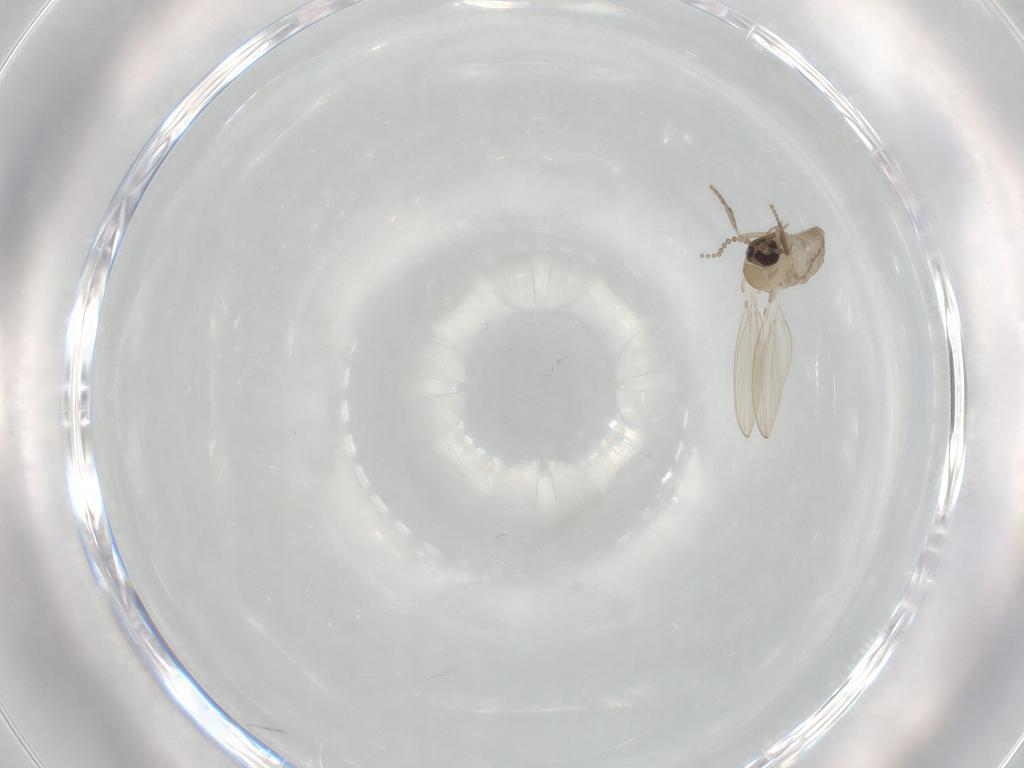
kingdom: Animalia
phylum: Arthropoda
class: Insecta
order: Diptera
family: Psychodidae
